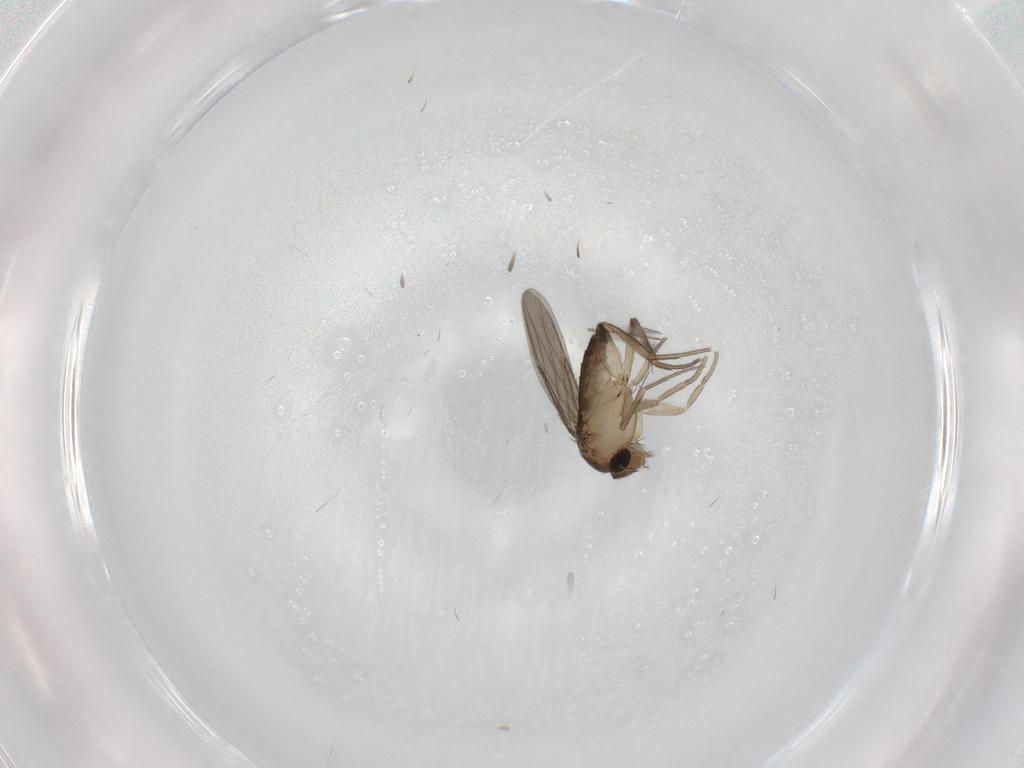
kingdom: Animalia
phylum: Arthropoda
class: Insecta
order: Diptera
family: Phoridae
